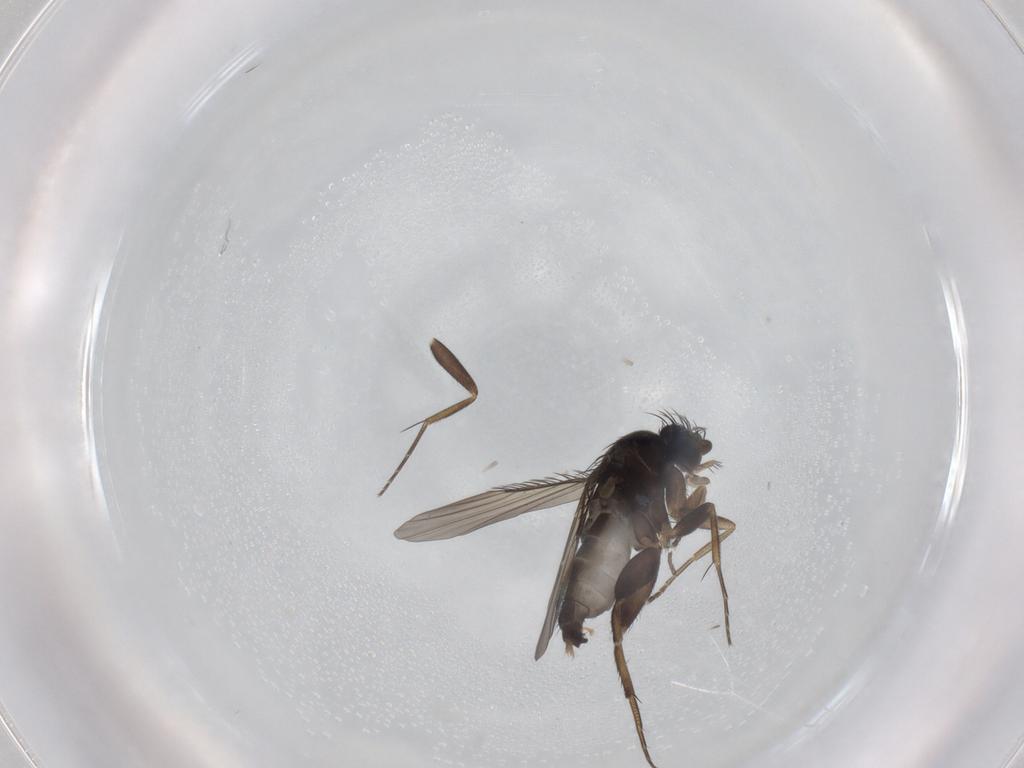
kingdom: Animalia
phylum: Arthropoda
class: Insecta
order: Diptera
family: Phoridae
